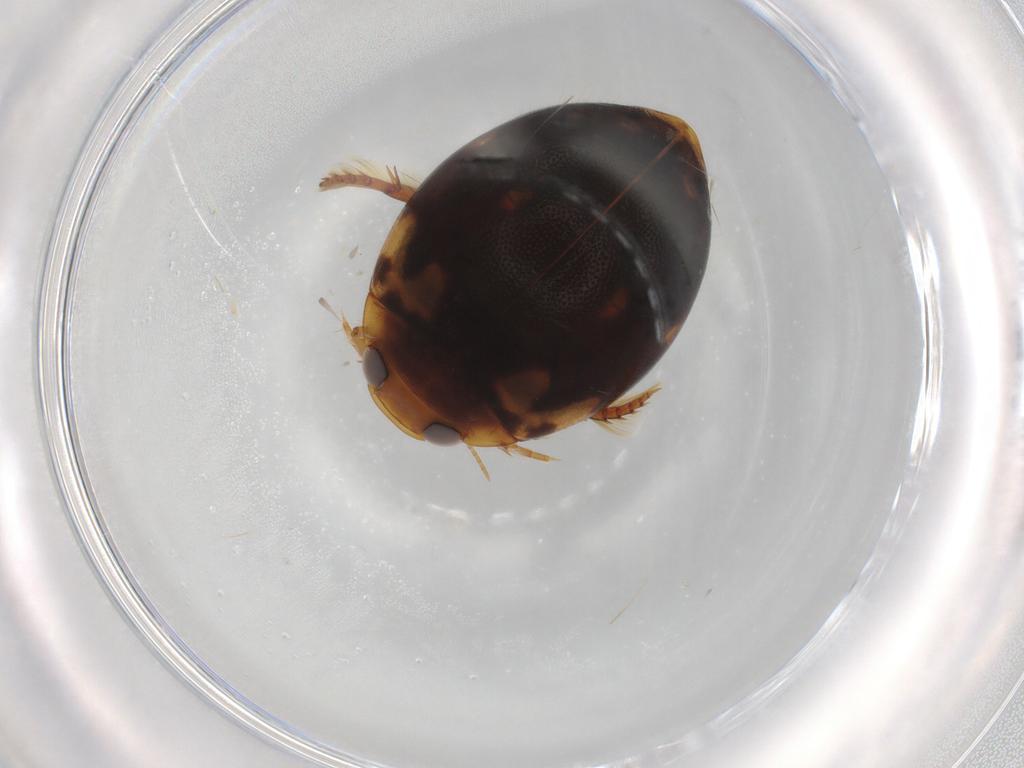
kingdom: Animalia
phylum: Arthropoda
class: Insecta
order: Coleoptera
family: Dytiscidae
